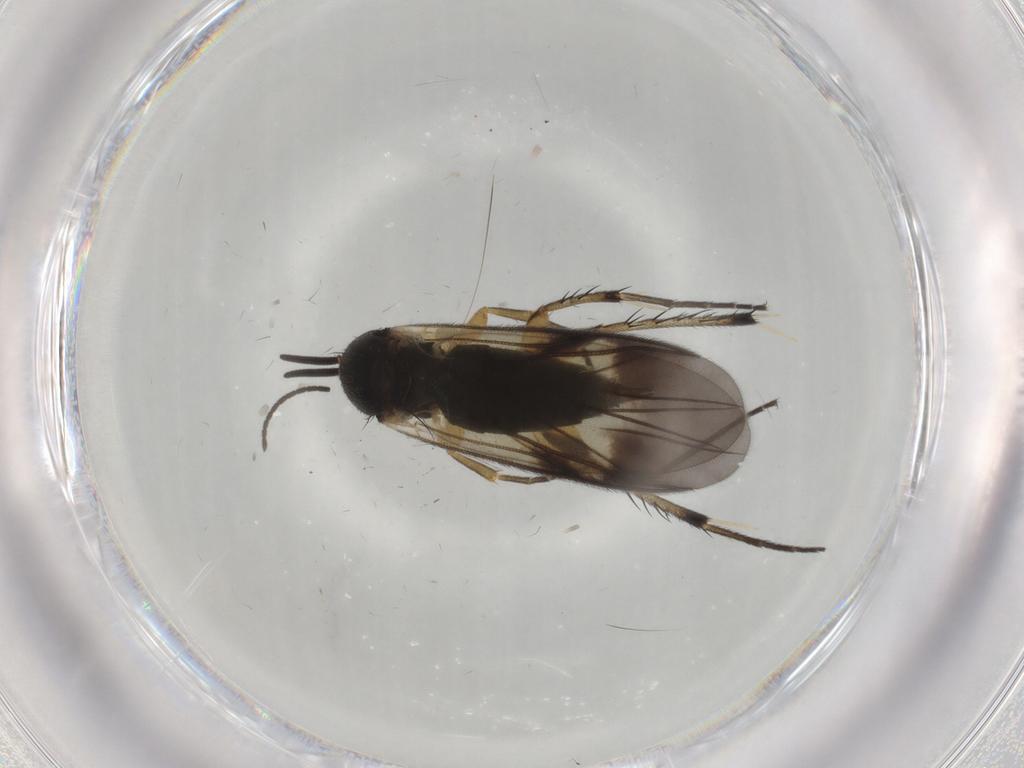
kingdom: Animalia
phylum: Arthropoda
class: Insecta
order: Diptera
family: Mycetophilidae
